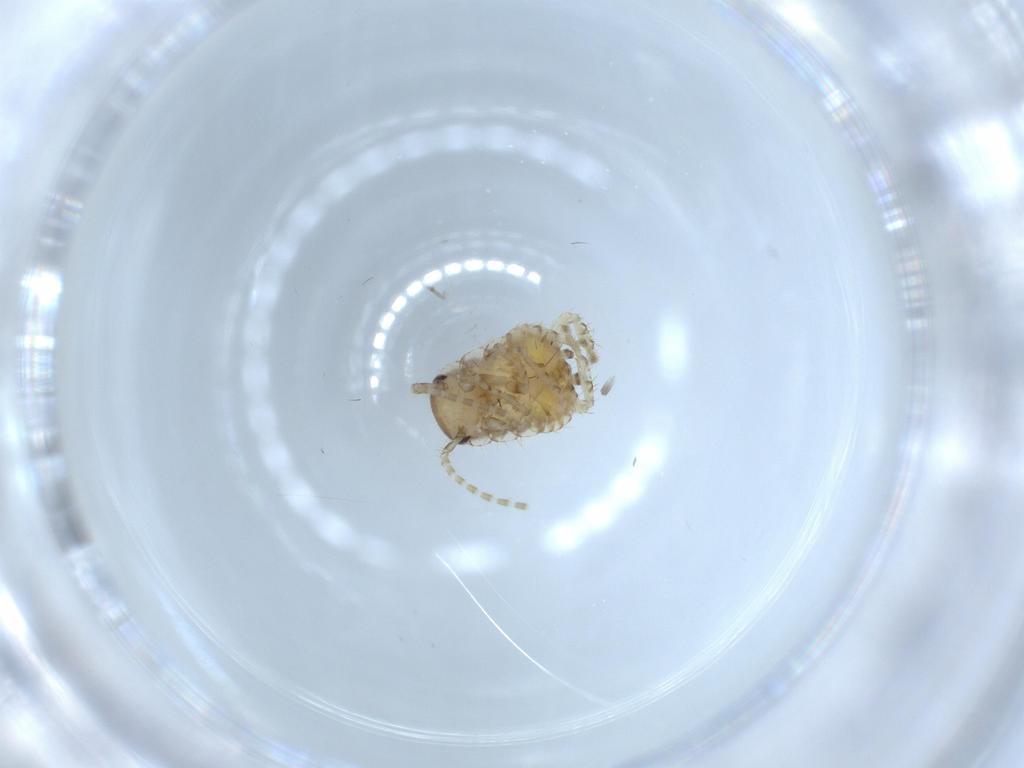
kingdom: Animalia
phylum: Arthropoda
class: Insecta
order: Blattodea
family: Ectobiidae
